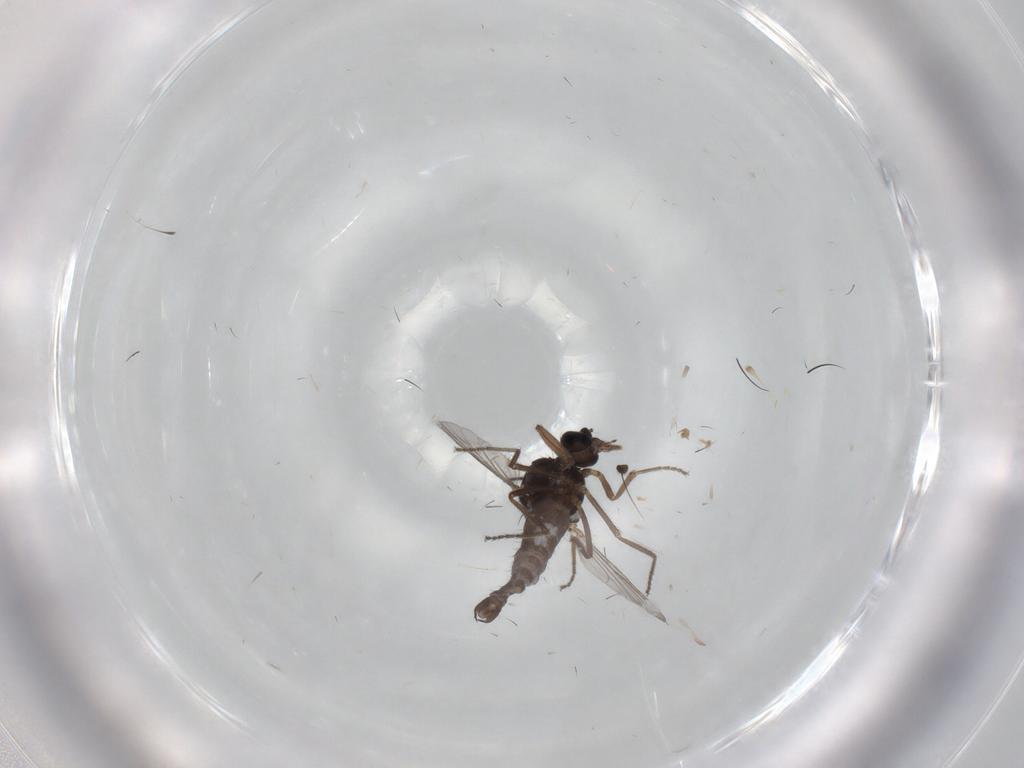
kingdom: Animalia
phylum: Arthropoda
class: Insecta
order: Diptera
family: Ceratopogonidae
